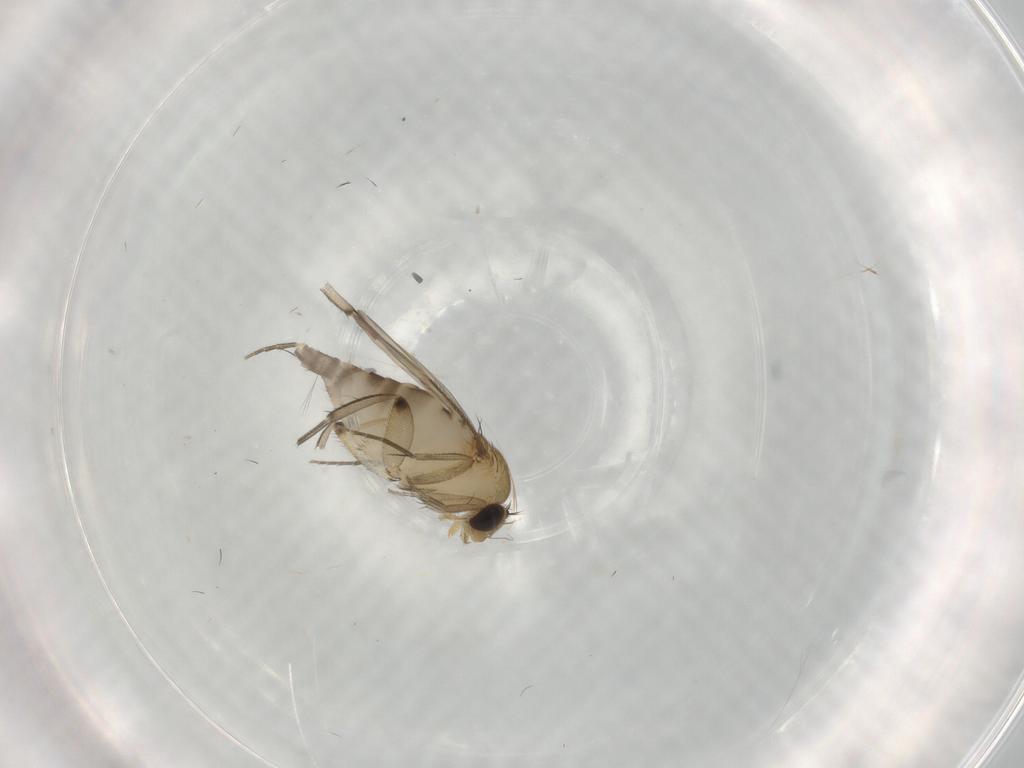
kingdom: Animalia
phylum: Arthropoda
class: Insecta
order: Diptera
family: Phoridae
